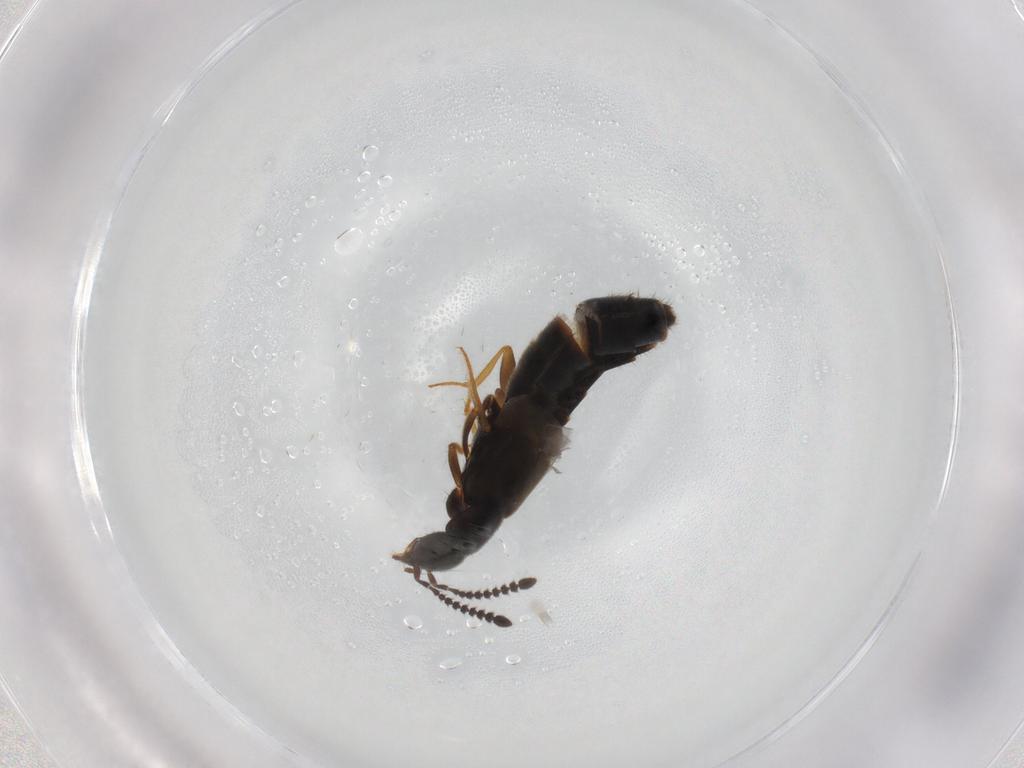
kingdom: Animalia
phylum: Arthropoda
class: Insecta
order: Coleoptera
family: Staphylinidae
